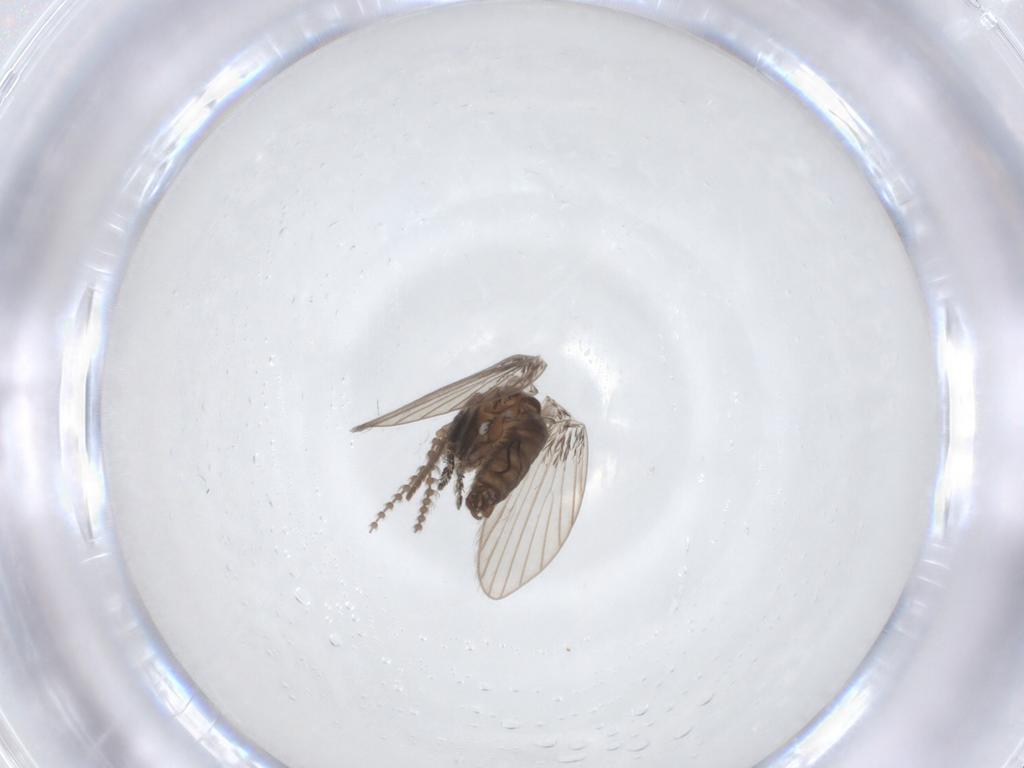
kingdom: Animalia
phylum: Arthropoda
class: Insecta
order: Diptera
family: Psychodidae
